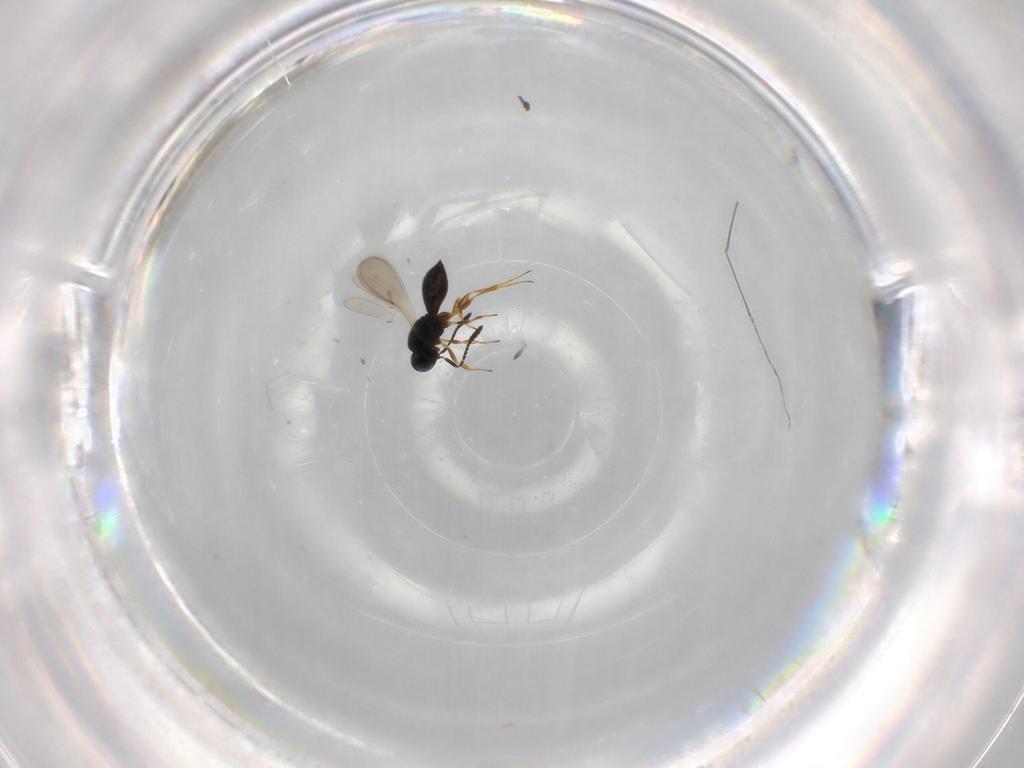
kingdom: Animalia
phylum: Arthropoda
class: Insecta
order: Hymenoptera
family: Scelionidae
